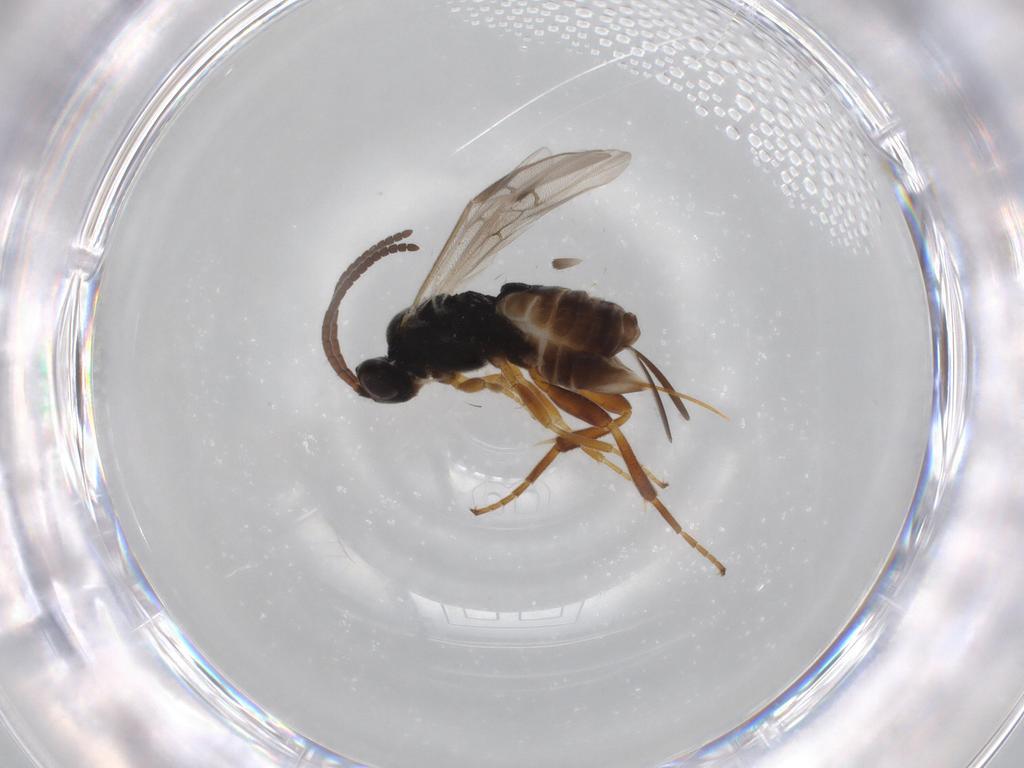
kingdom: Animalia
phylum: Arthropoda
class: Insecta
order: Hymenoptera
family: Braconidae
